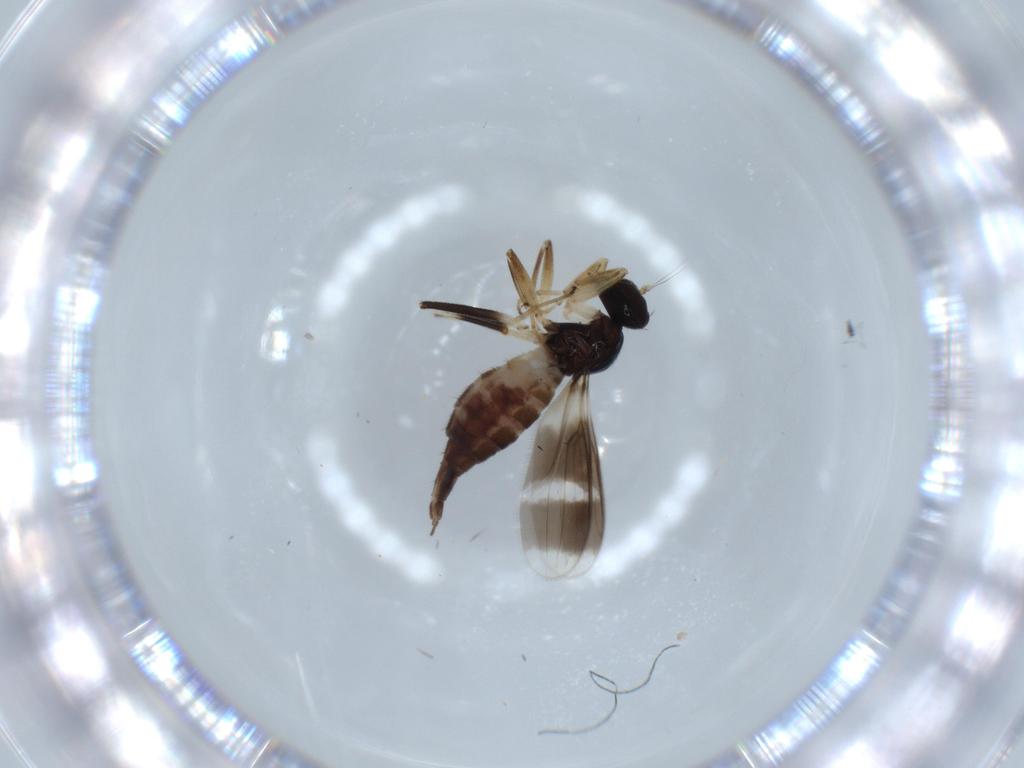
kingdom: Animalia
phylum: Arthropoda
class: Insecta
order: Diptera
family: Hybotidae
